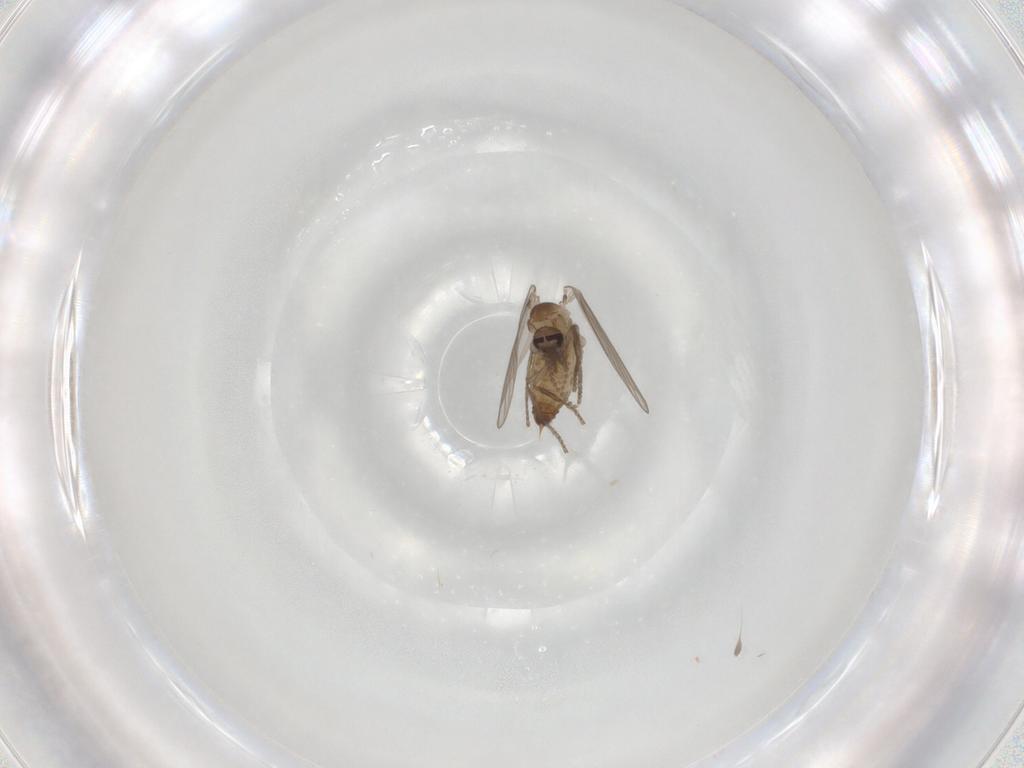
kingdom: Animalia
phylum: Arthropoda
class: Insecta
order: Diptera
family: Psychodidae
